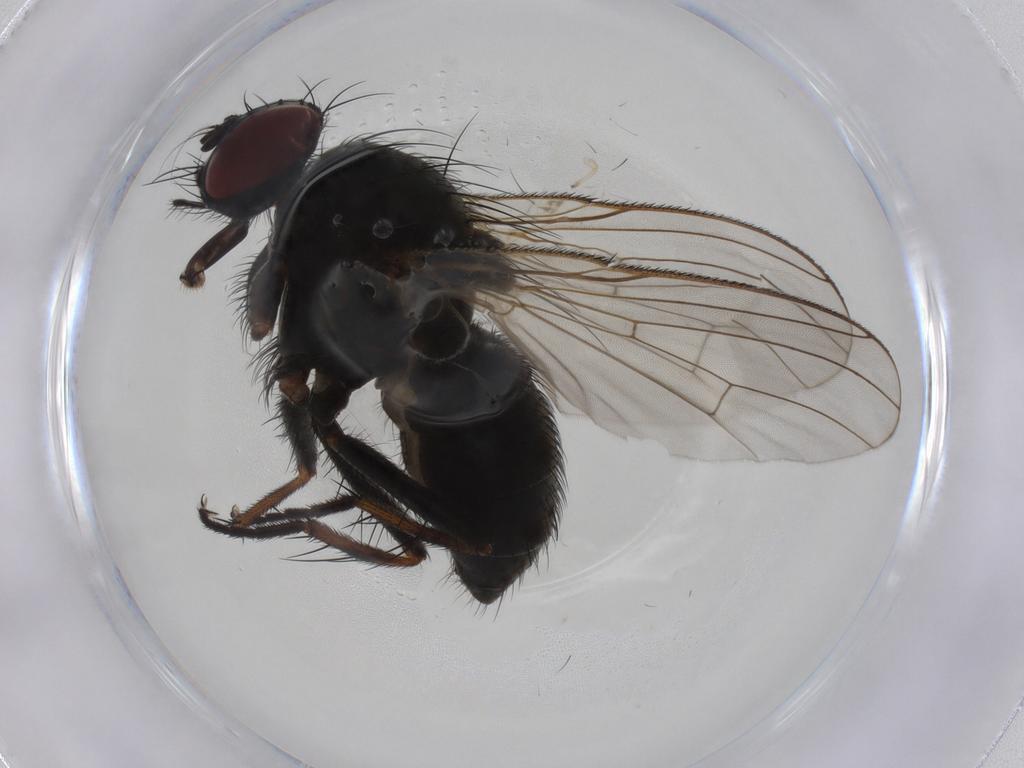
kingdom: Animalia
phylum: Arthropoda
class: Insecta
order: Diptera
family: Muscidae
